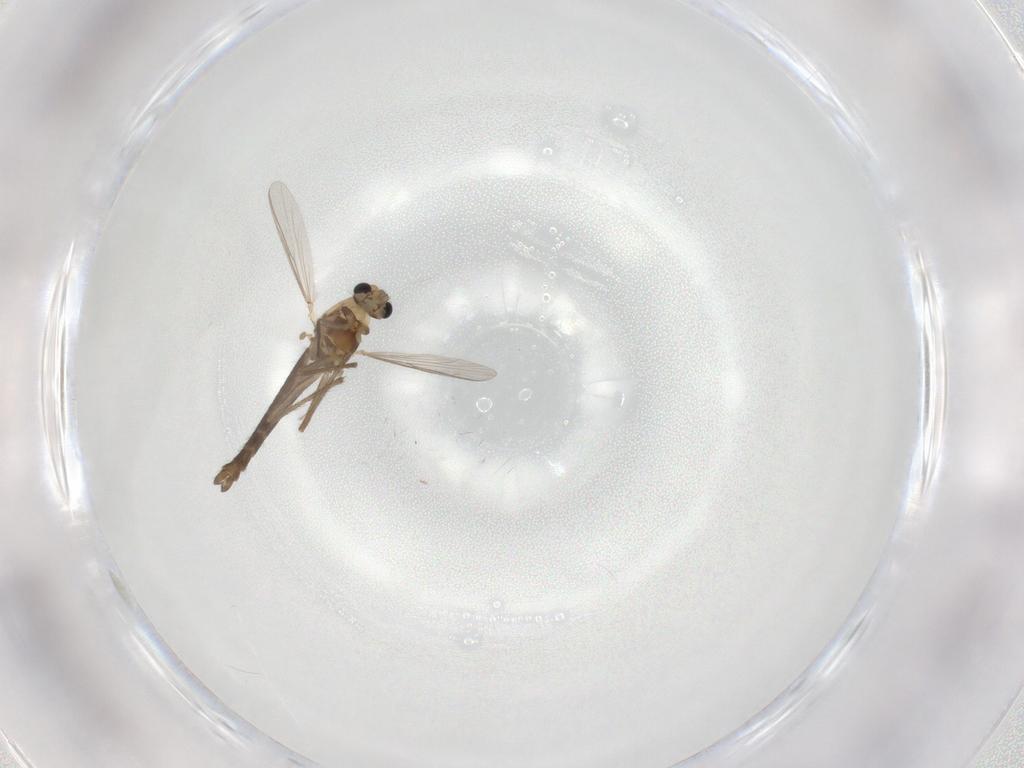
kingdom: Animalia
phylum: Arthropoda
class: Insecta
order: Diptera
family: Chironomidae
